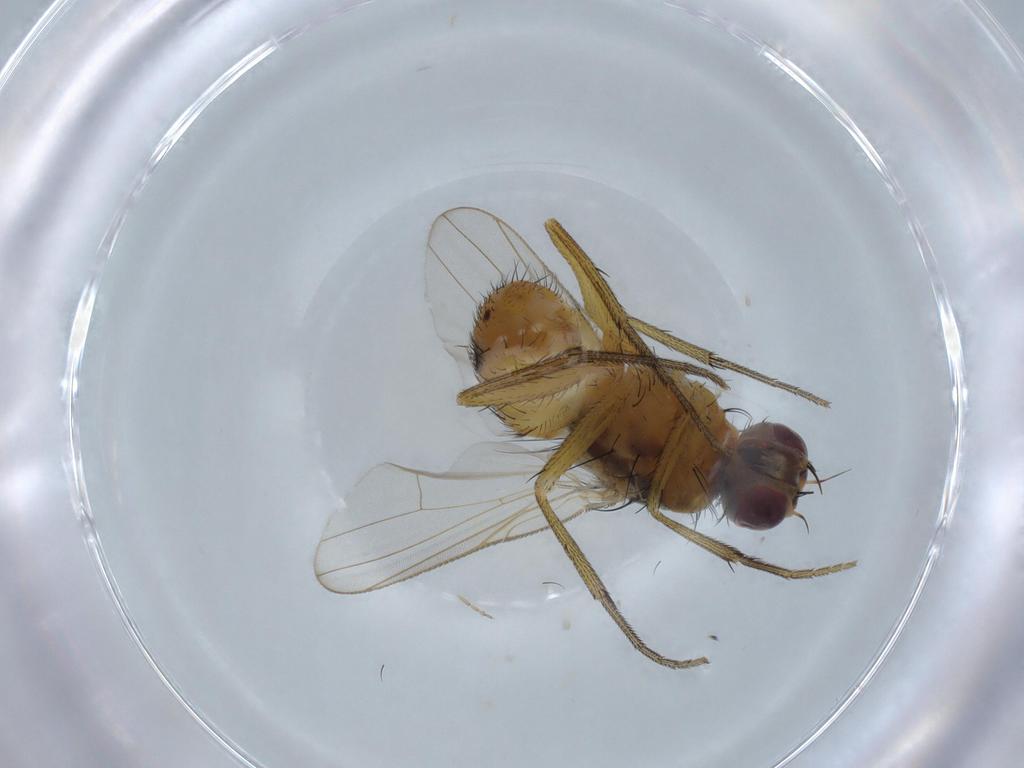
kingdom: Animalia
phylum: Arthropoda
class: Insecta
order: Diptera
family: Muscidae
